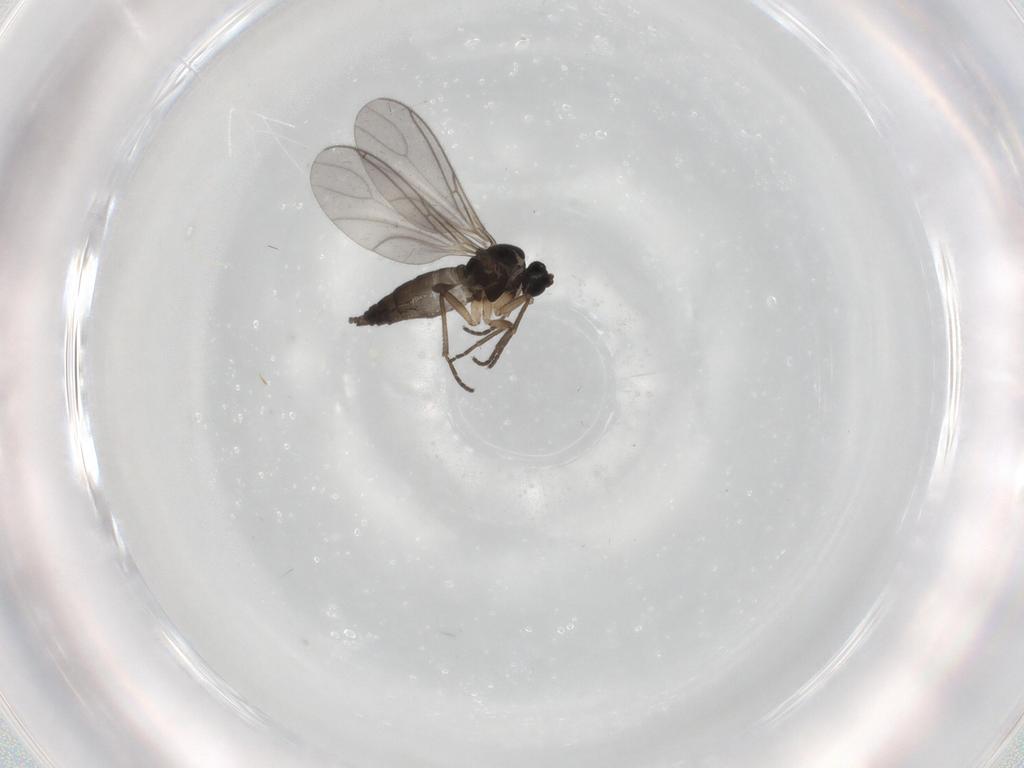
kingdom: Animalia
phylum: Arthropoda
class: Insecta
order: Diptera
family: Sciaridae
